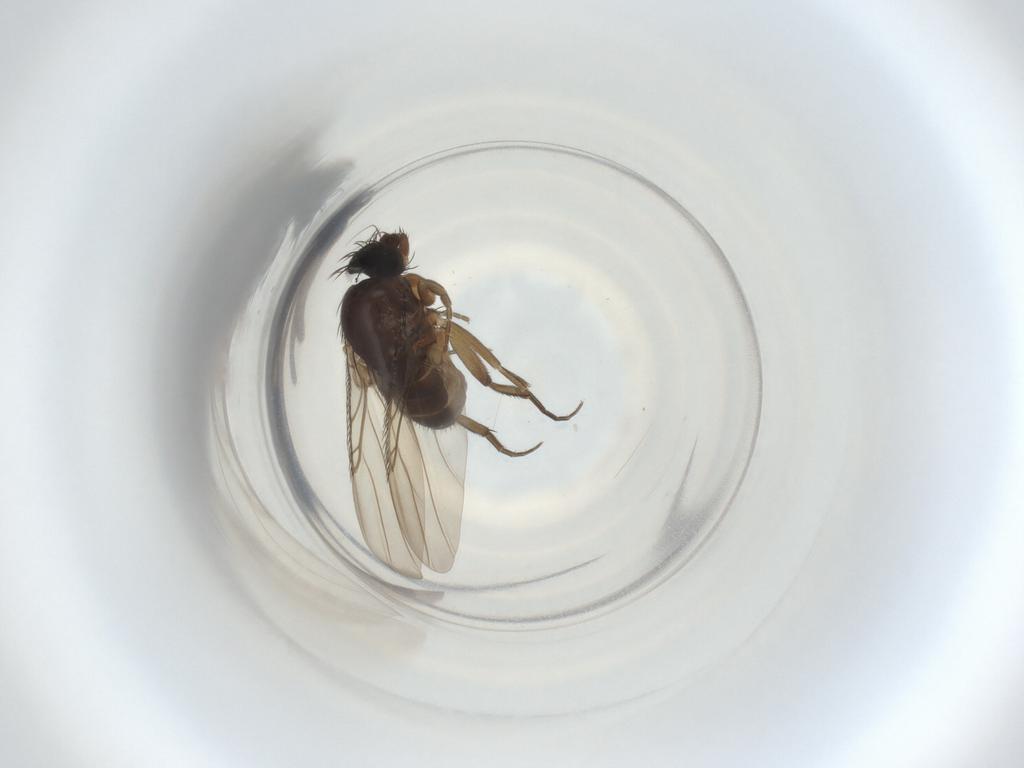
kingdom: Animalia
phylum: Arthropoda
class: Insecta
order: Diptera
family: Phoridae
